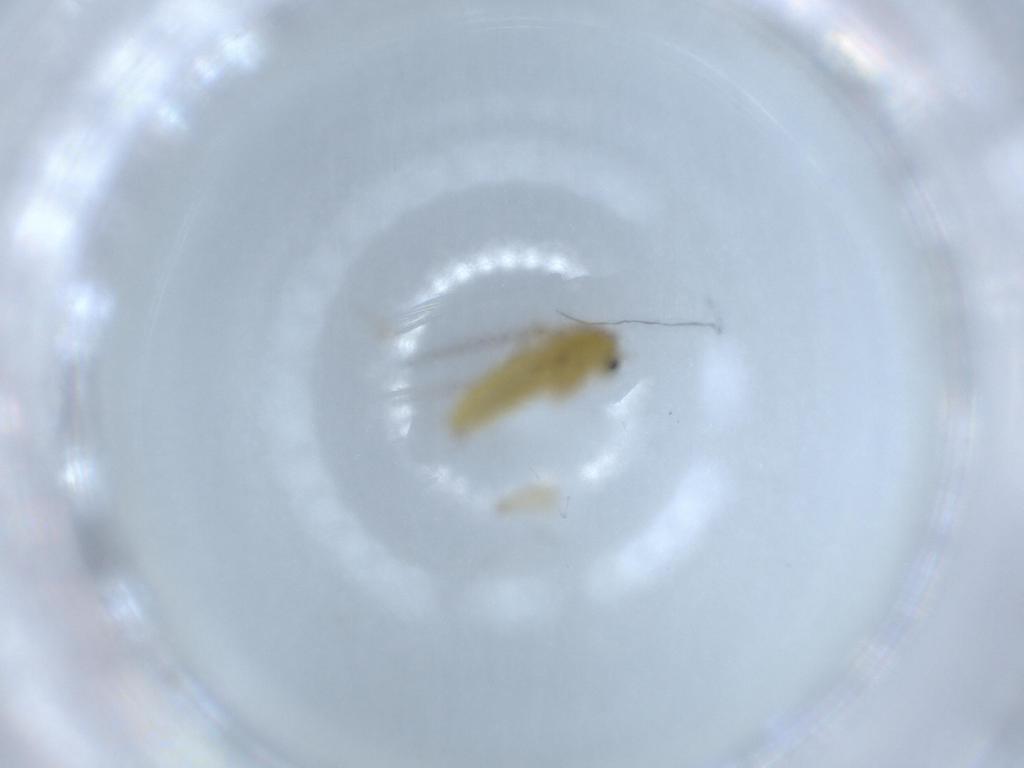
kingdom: Animalia
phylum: Arthropoda
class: Insecta
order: Diptera
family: Chironomidae
